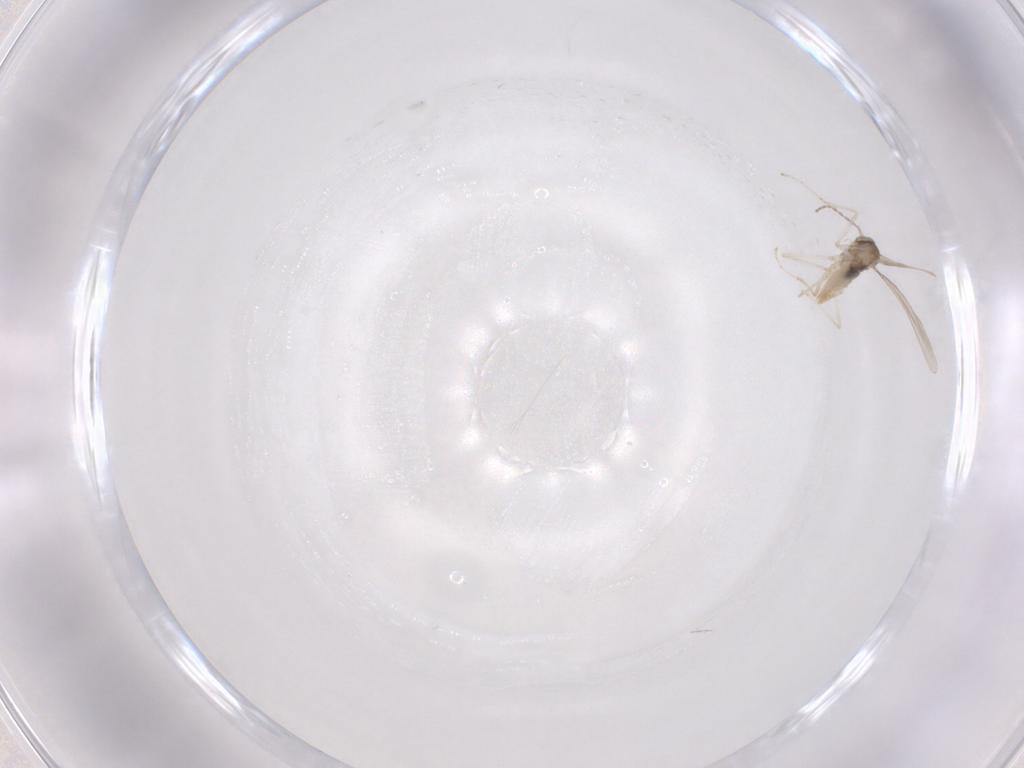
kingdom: Animalia
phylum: Arthropoda
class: Insecta
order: Diptera
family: Cecidomyiidae
